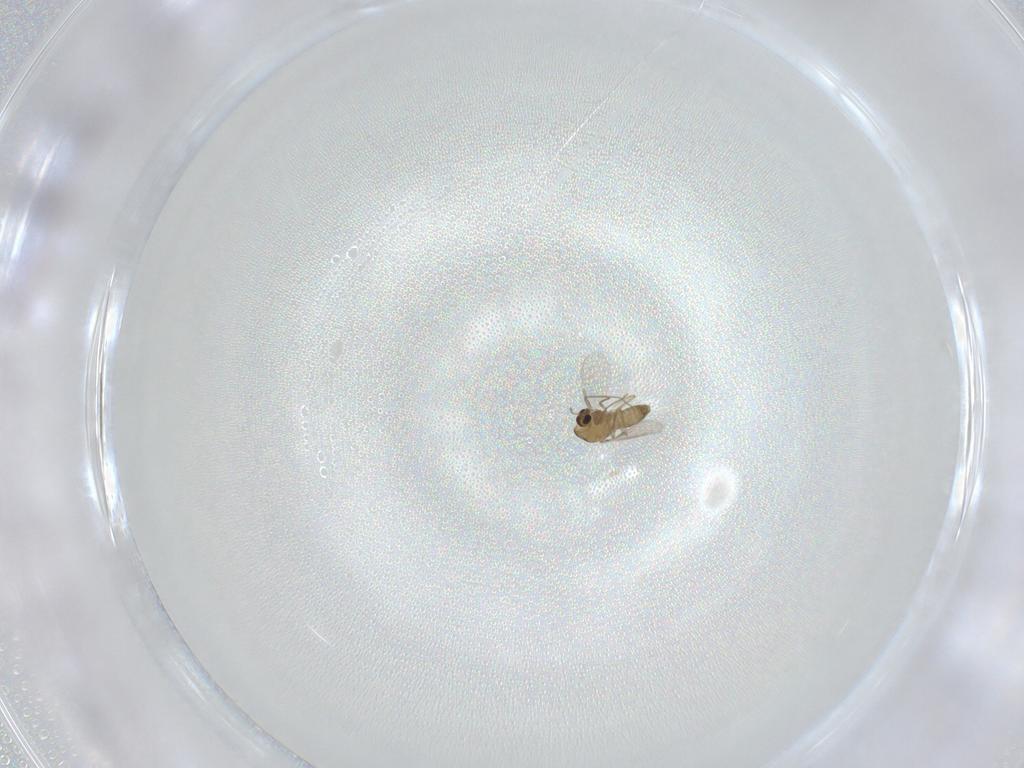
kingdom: Animalia
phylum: Arthropoda
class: Insecta
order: Diptera
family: Chironomidae
